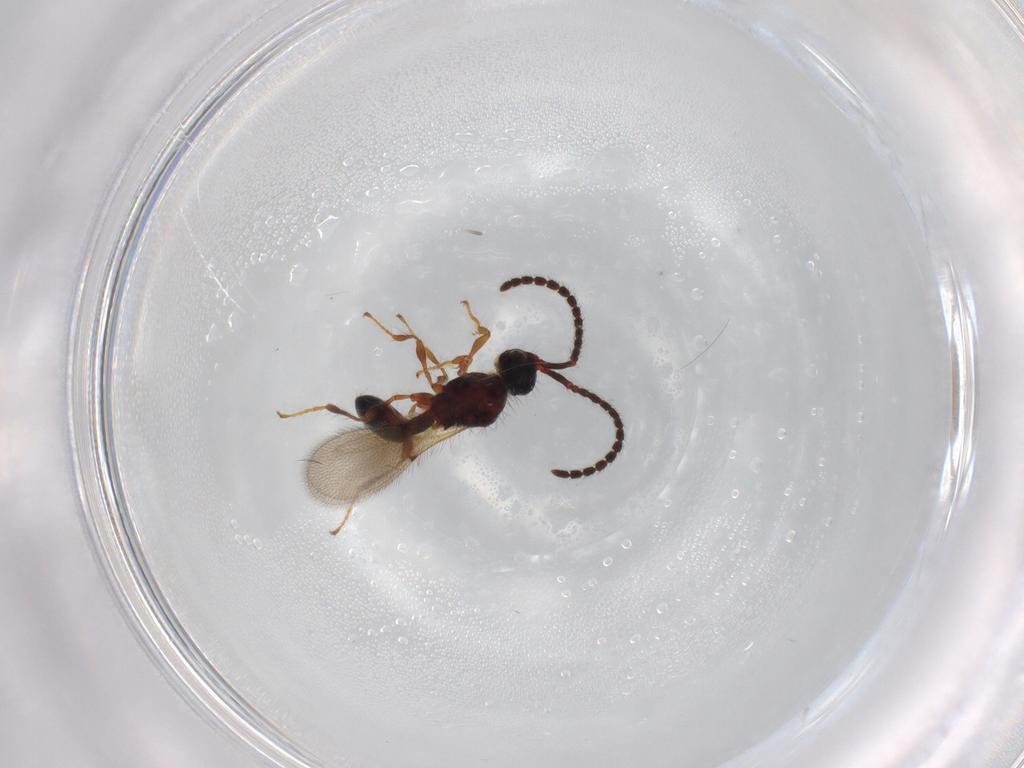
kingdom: Animalia
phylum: Arthropoda
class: Insecta
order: Hymenoptera
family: Diapriidae
